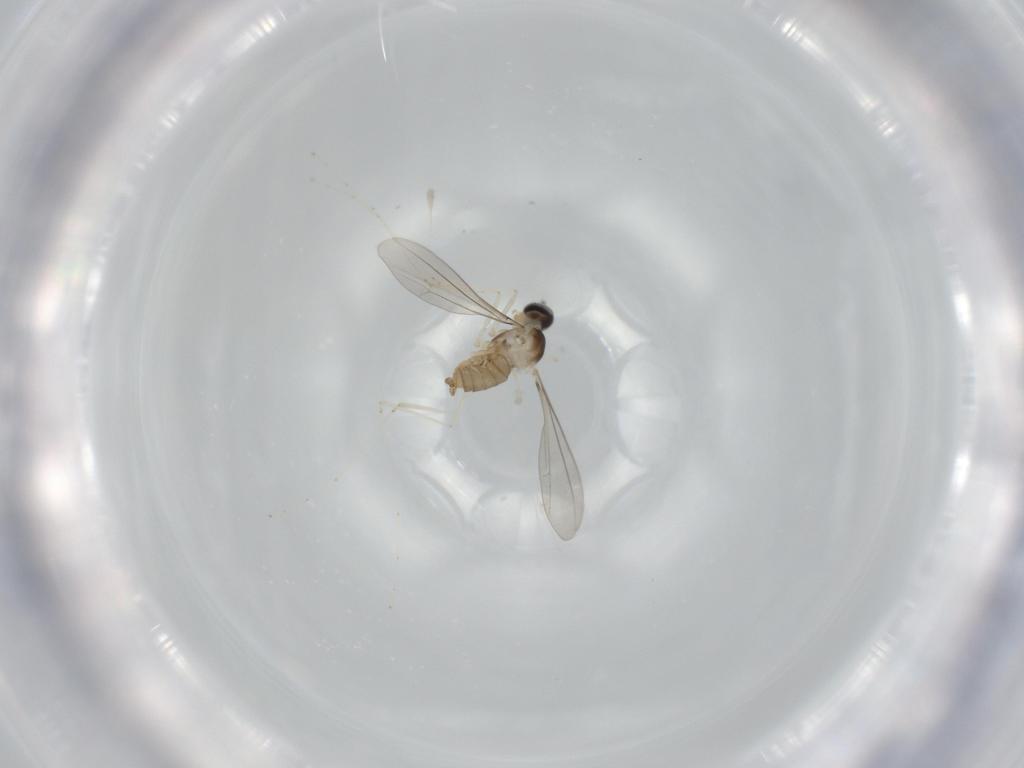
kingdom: Animalia
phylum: Arthropoda
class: Insecta
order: Diptera
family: Cecidomyiidae
